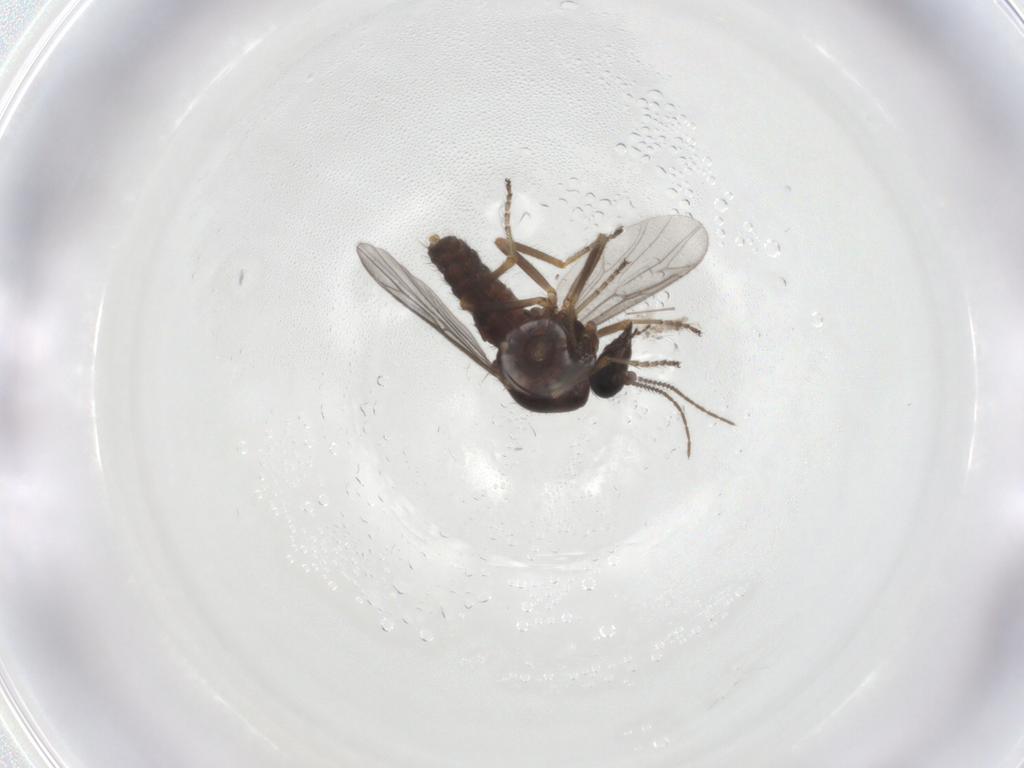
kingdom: Animalia
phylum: Arthropoda
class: Insecta
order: Diptera
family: Ceratopogonidae
